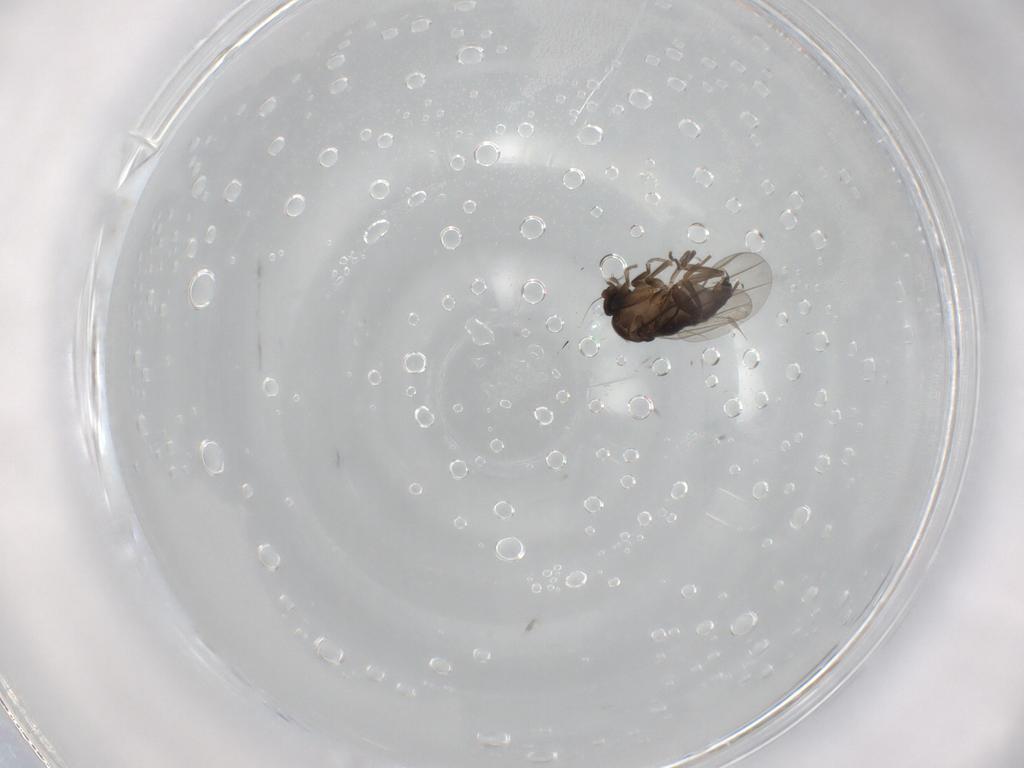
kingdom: Animalia
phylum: Arthropoda
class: Insecta
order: Diptera
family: Phoridae
